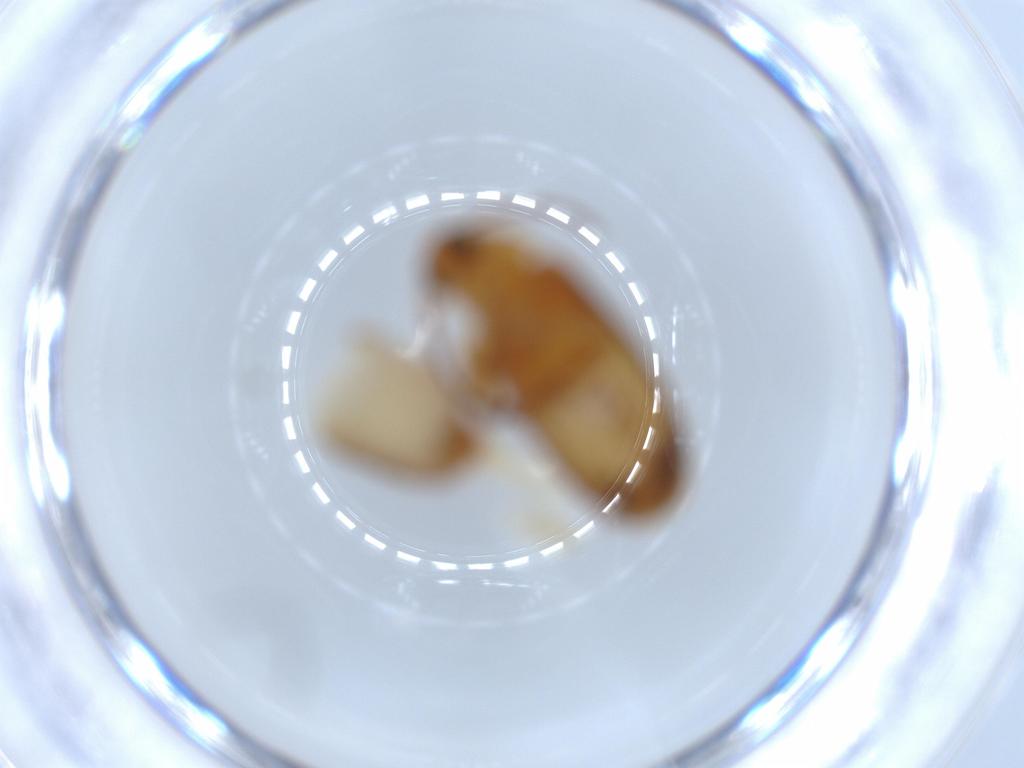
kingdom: Animalia
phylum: Arthropoda
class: Insecta
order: Coleoptera
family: Scraptiidae
